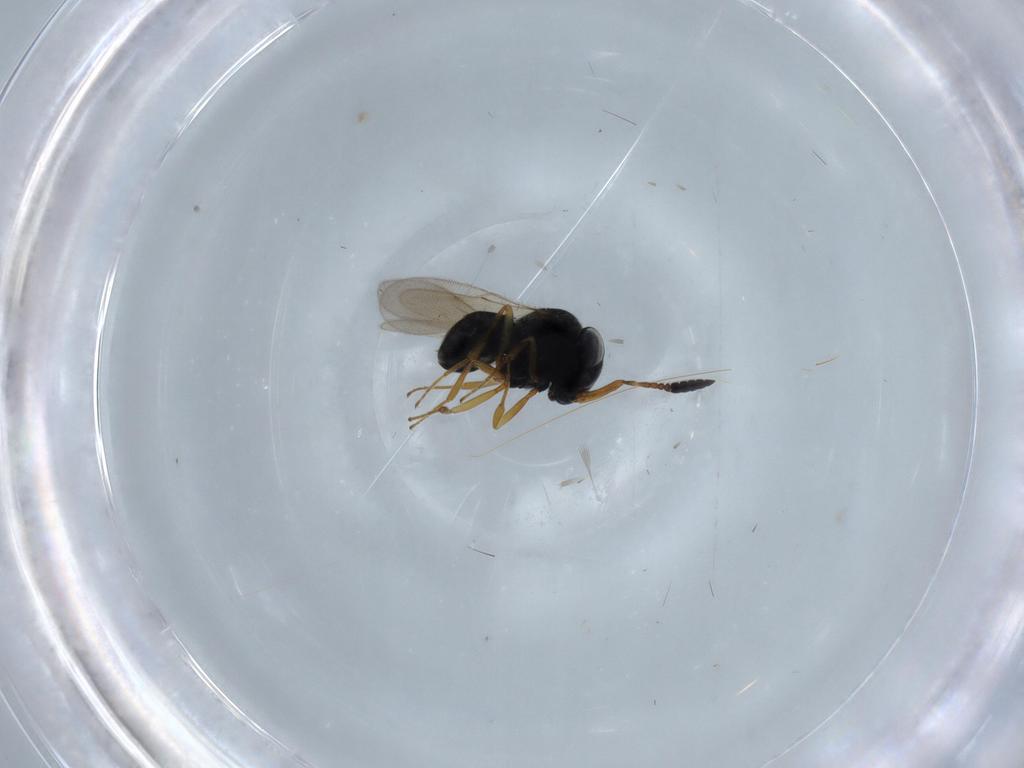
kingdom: Animalia
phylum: Arthropoda
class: Insecta
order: Hymenoptera
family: Scelionidae
